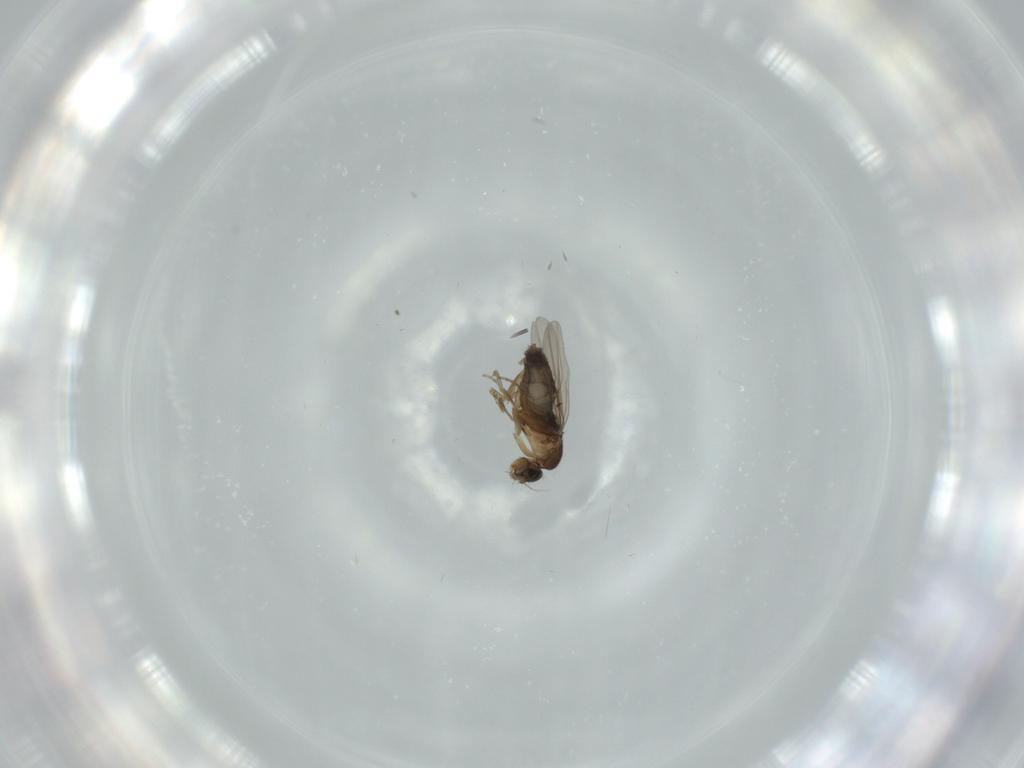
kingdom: Animalia
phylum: Arthropoda
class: Insecta
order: Diptera
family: Phoridae
